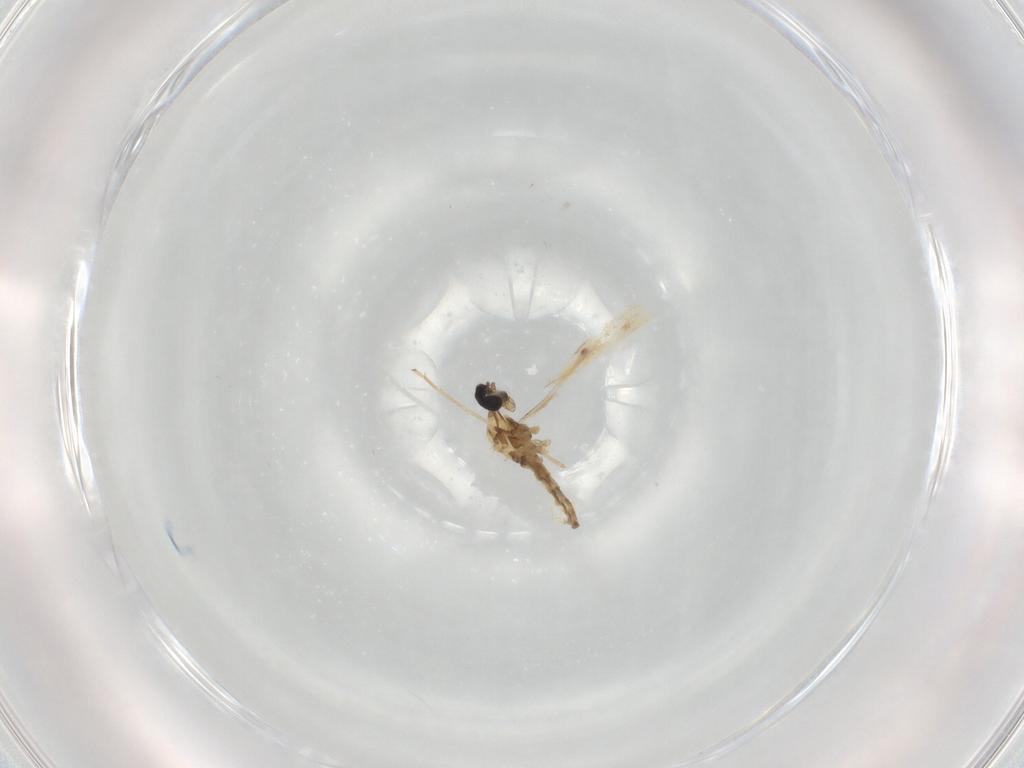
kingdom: Animalia
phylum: Arthropoda
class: Insecta
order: Diptera
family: Cecidomyiidae
